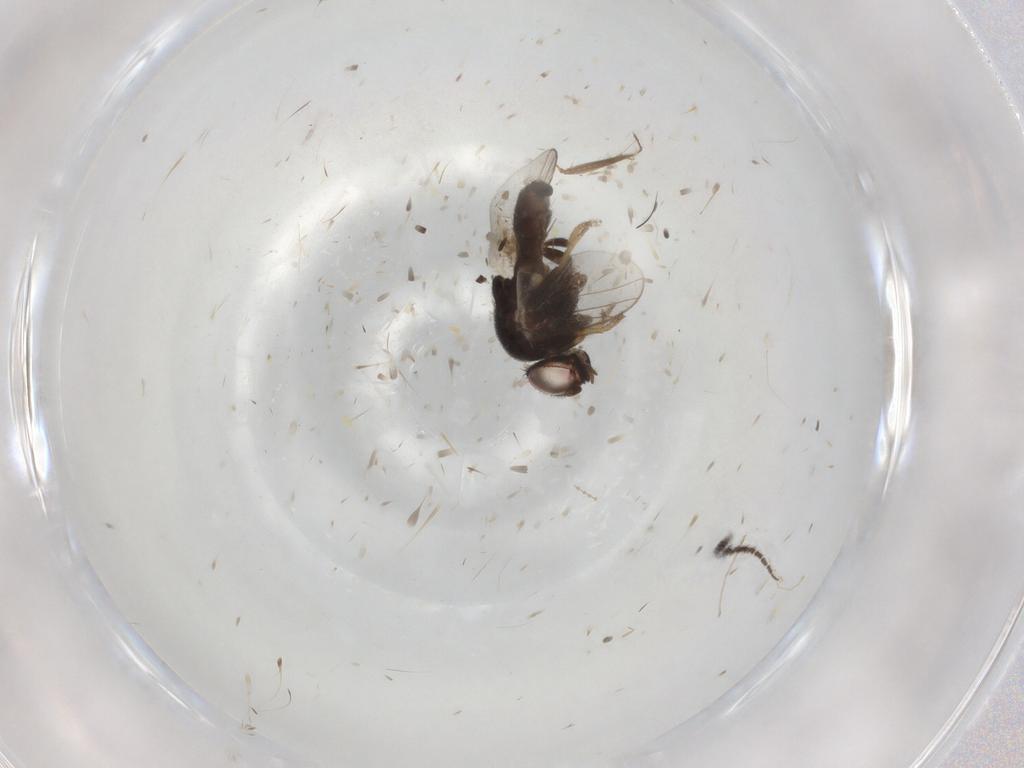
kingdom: Animalia
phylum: Arthropoda
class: Insecta
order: Diptera
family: Chloropidae
